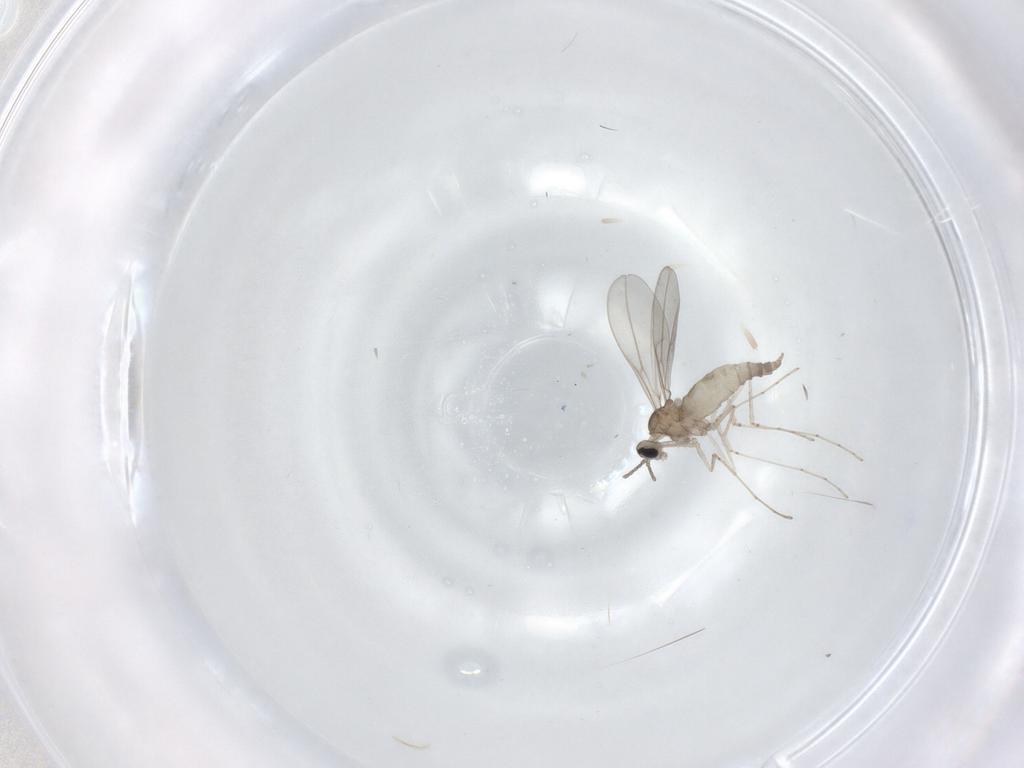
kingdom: Animalia
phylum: Arthropoda
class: Insecta
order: Diptera
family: Cecidomyiidae
